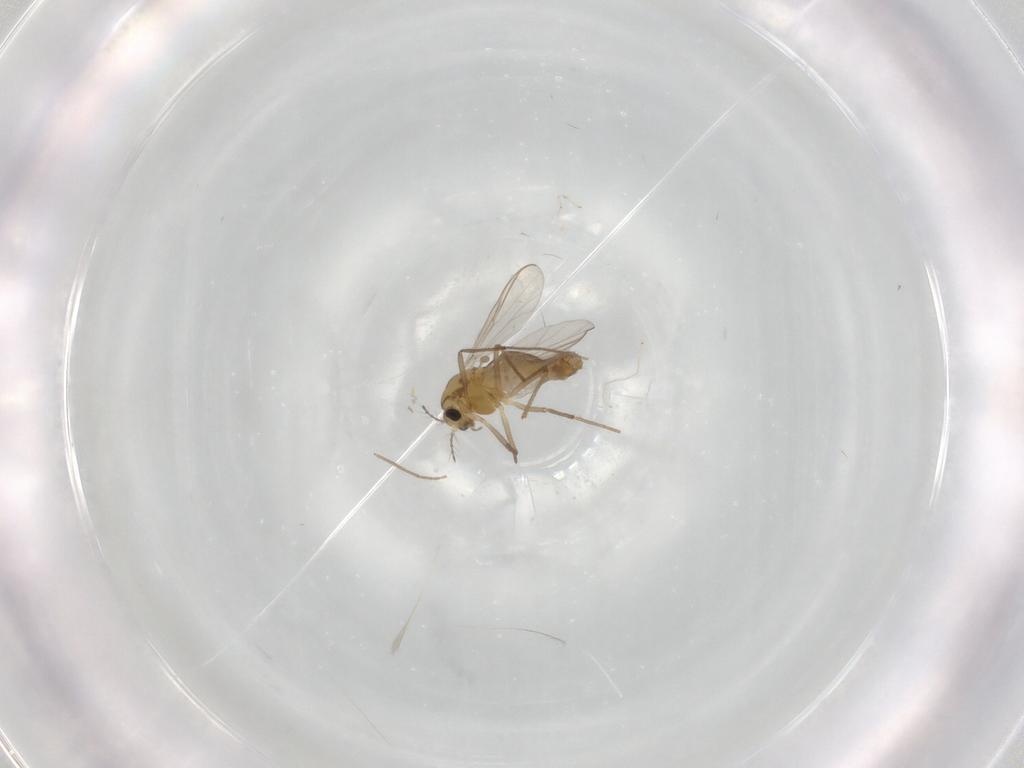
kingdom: Animalia
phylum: Arthropoda
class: Insecta
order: Diptera
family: Chironomidae
